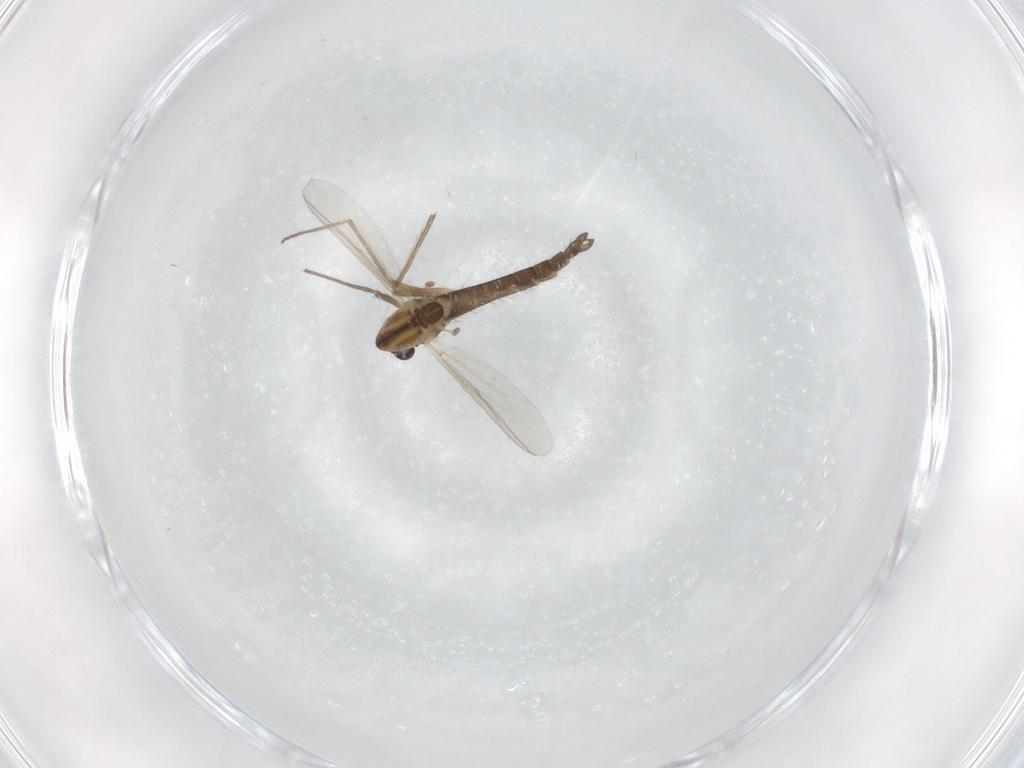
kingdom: Animalia
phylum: Arthropoda
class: Insecta
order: Diptera
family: Chironomidae
